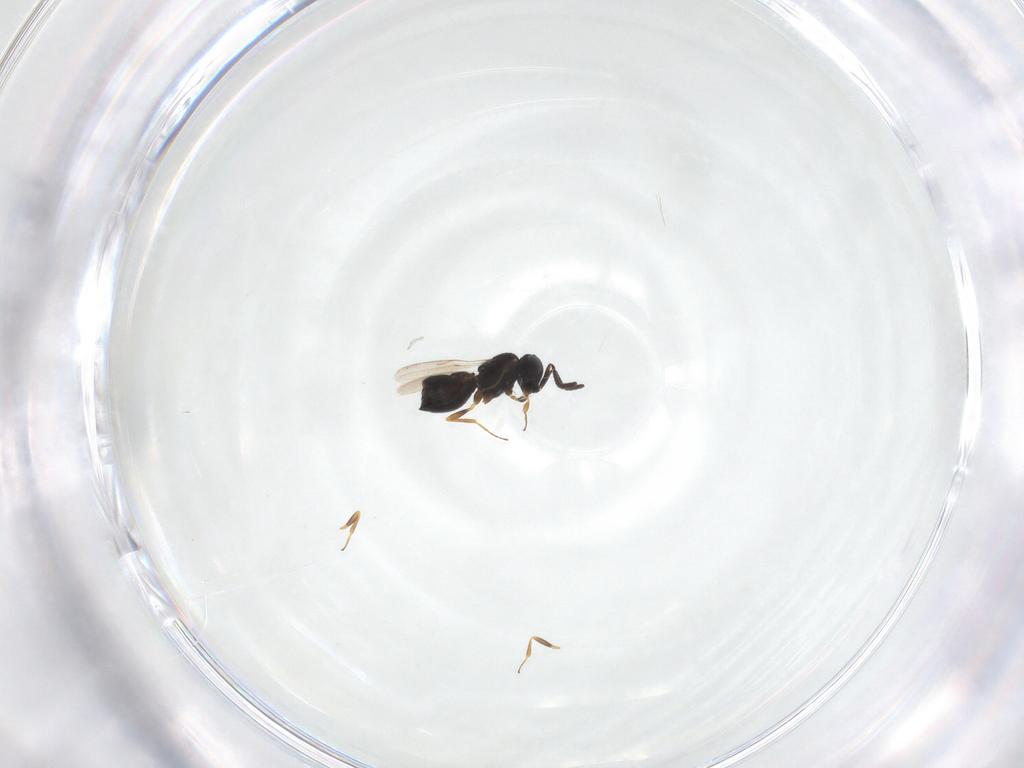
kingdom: Animalia
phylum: Arthropoda
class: Insecta
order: Hymenoptera
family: Scelionidae
